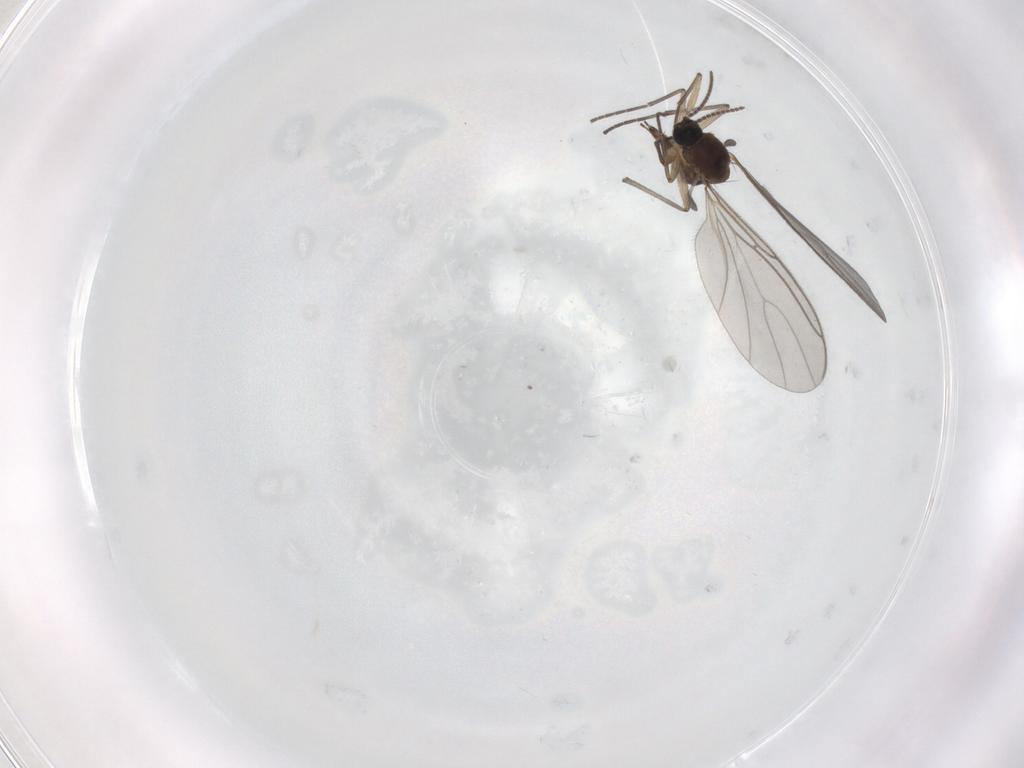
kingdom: Animalia
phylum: Arthropoda
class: Insecta
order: Diptera
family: Sciaridae
